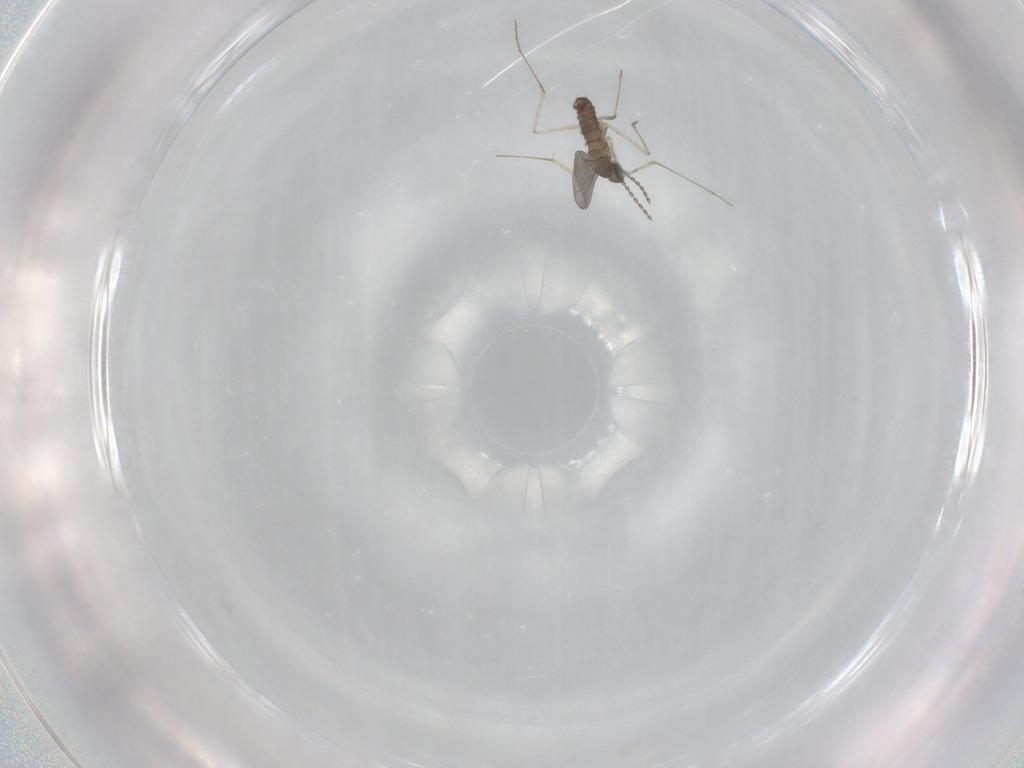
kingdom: Animalia
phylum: Arthropoda
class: Insecta
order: Diptera
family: Cecidomyiidae
